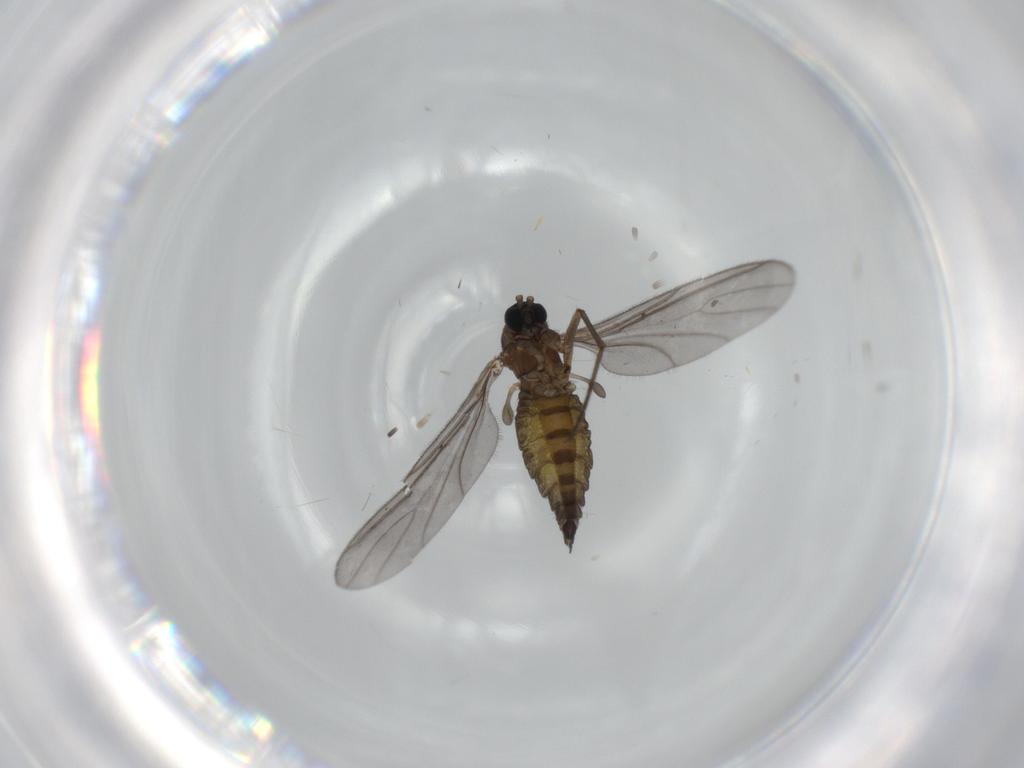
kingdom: Animalia
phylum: Arthropoda
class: Insecta
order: Diptera
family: Sciaridae
